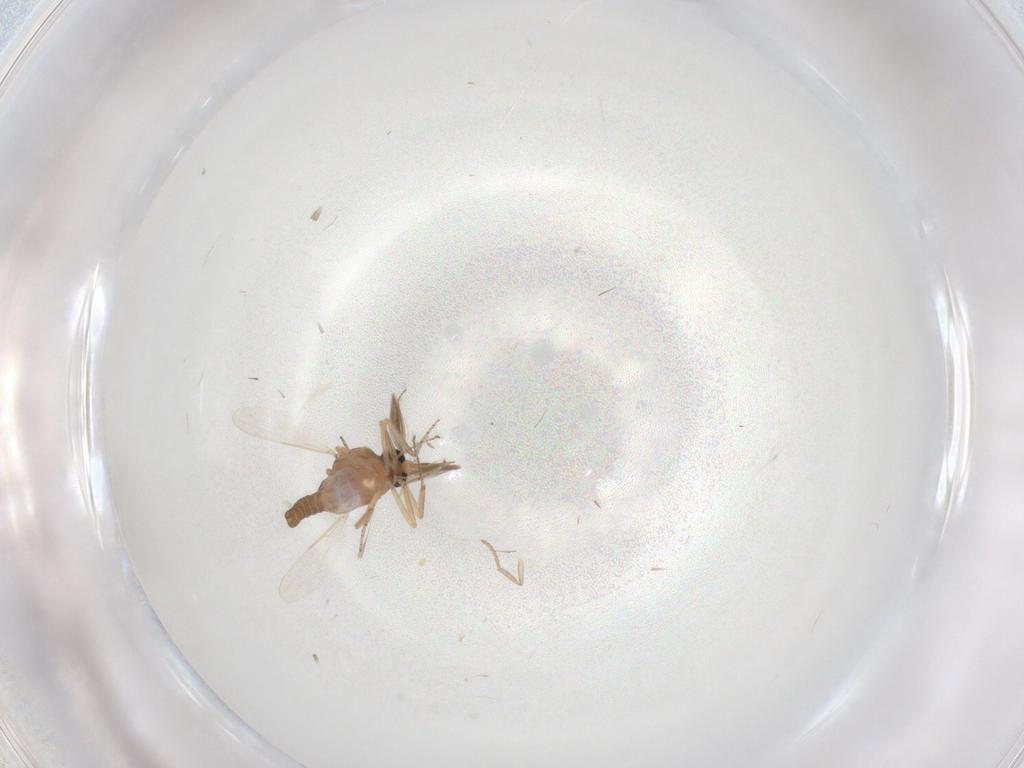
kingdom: Animalia
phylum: Arthropoda
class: Insecta
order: Diptera
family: Ceratopogonidae
